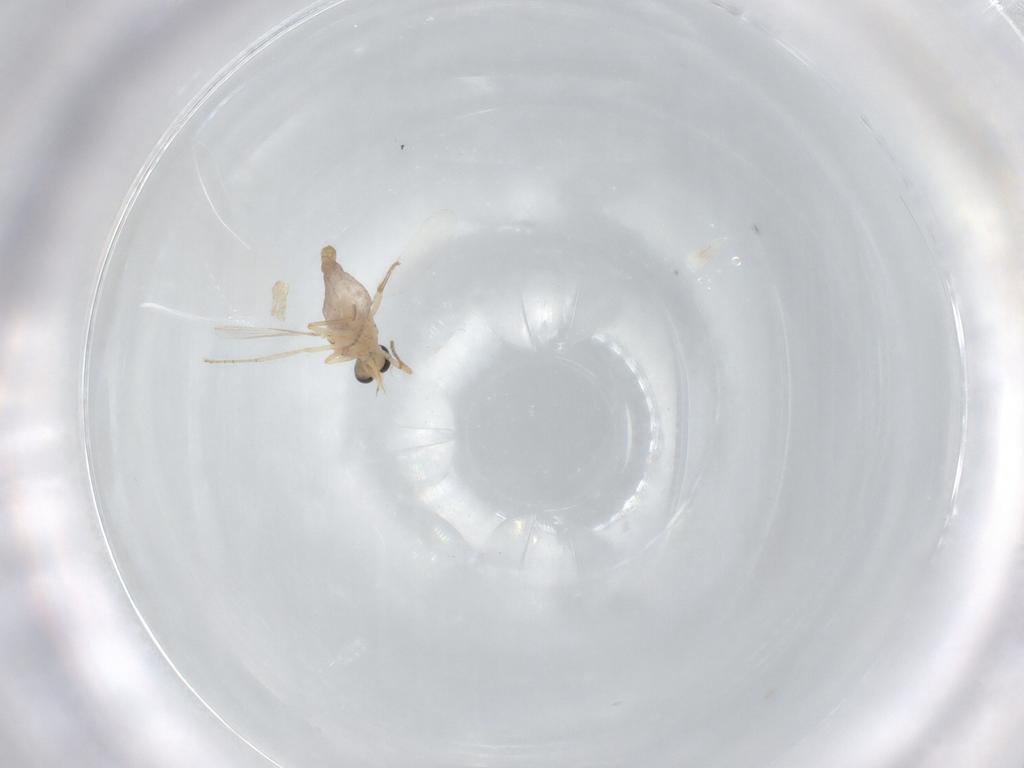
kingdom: Animalia
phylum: Arthropoda
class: Insecta
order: Diptera
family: Ceratopogonidae
